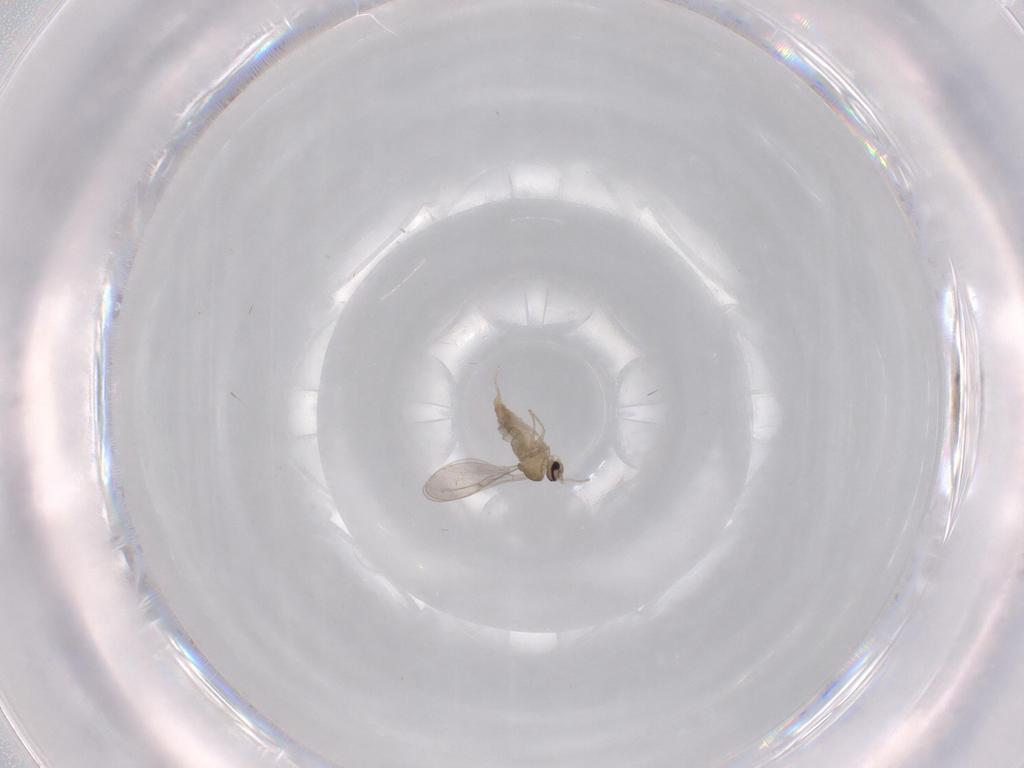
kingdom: Animalia
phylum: Arthropoda
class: Insecta
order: Diptera
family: Cecidomyiidae
